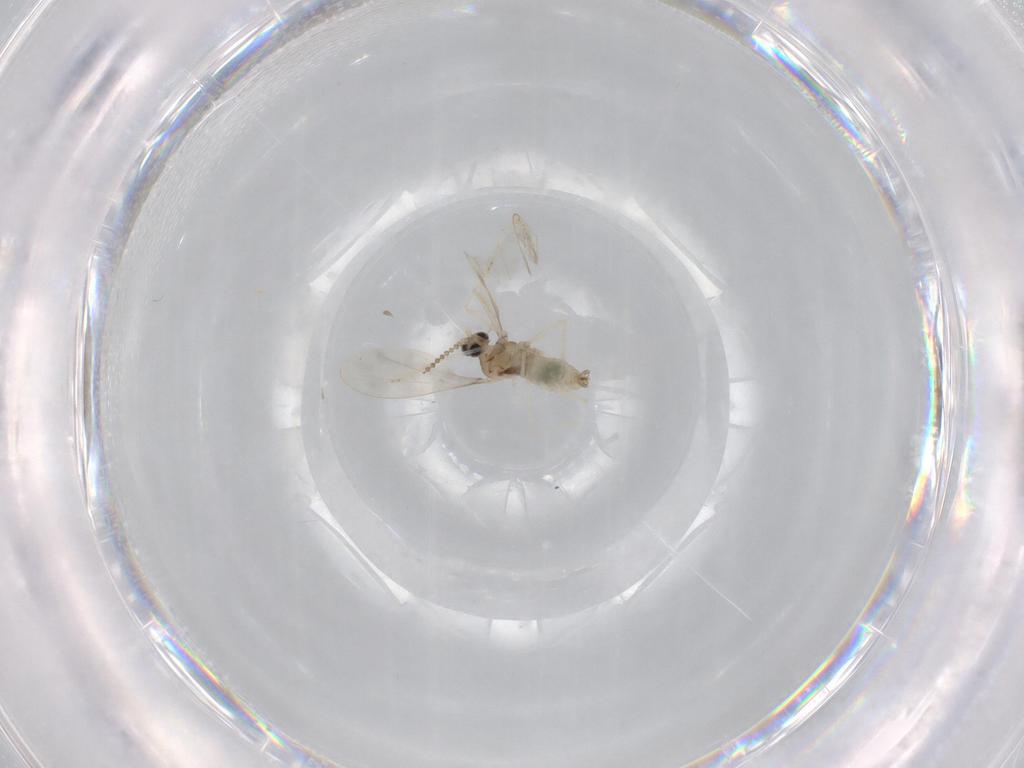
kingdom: Animalia
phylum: Arthropoda
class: Insecta
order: Diptera
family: Cecidomyiidae
